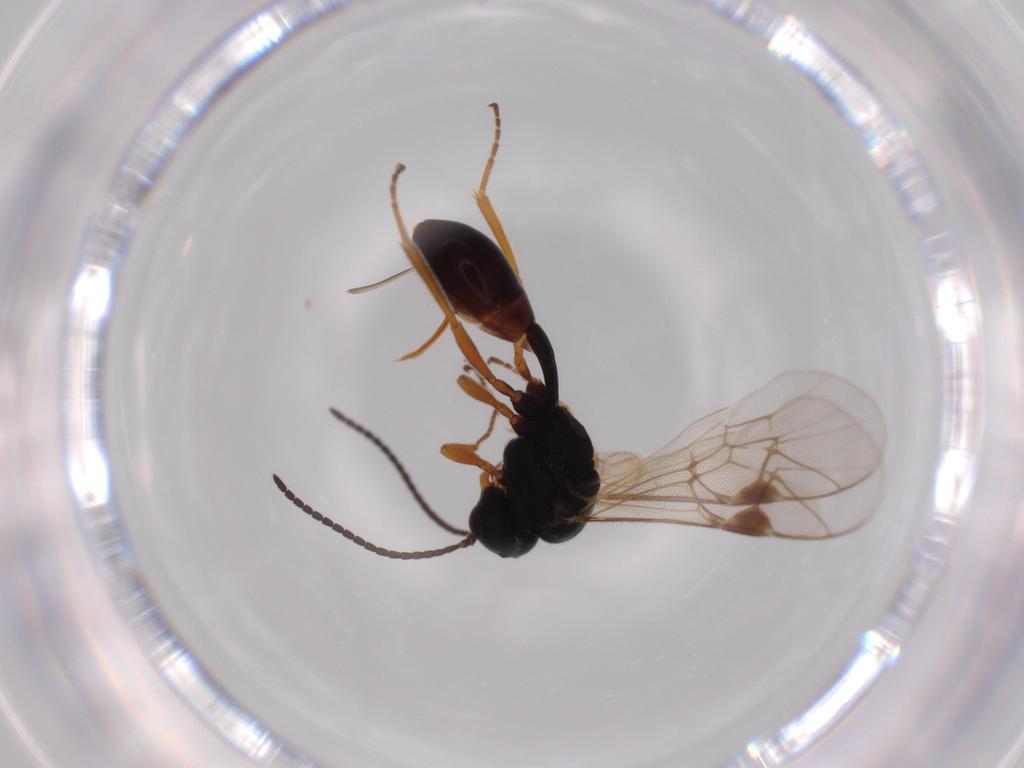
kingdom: Animalia
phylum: Arthropoda
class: Insecta
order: Hymenoptera
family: Ichneumonidae
